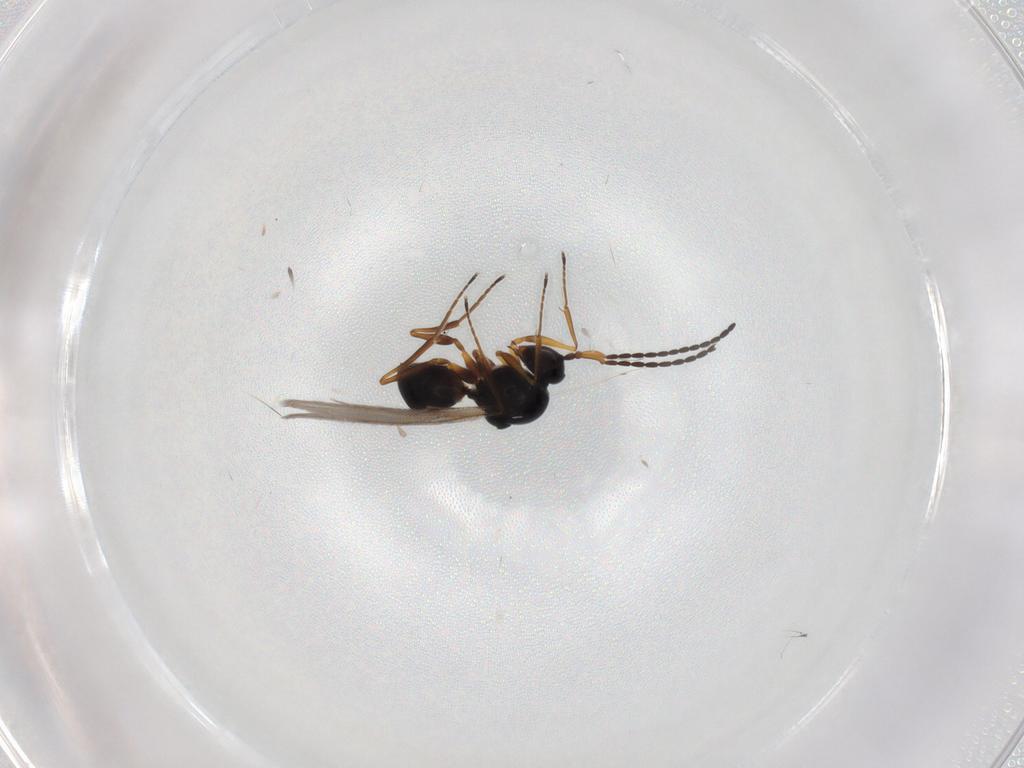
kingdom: Animalia
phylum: Arthropoda
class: Insecta
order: Hymenoptera
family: Figitidae
